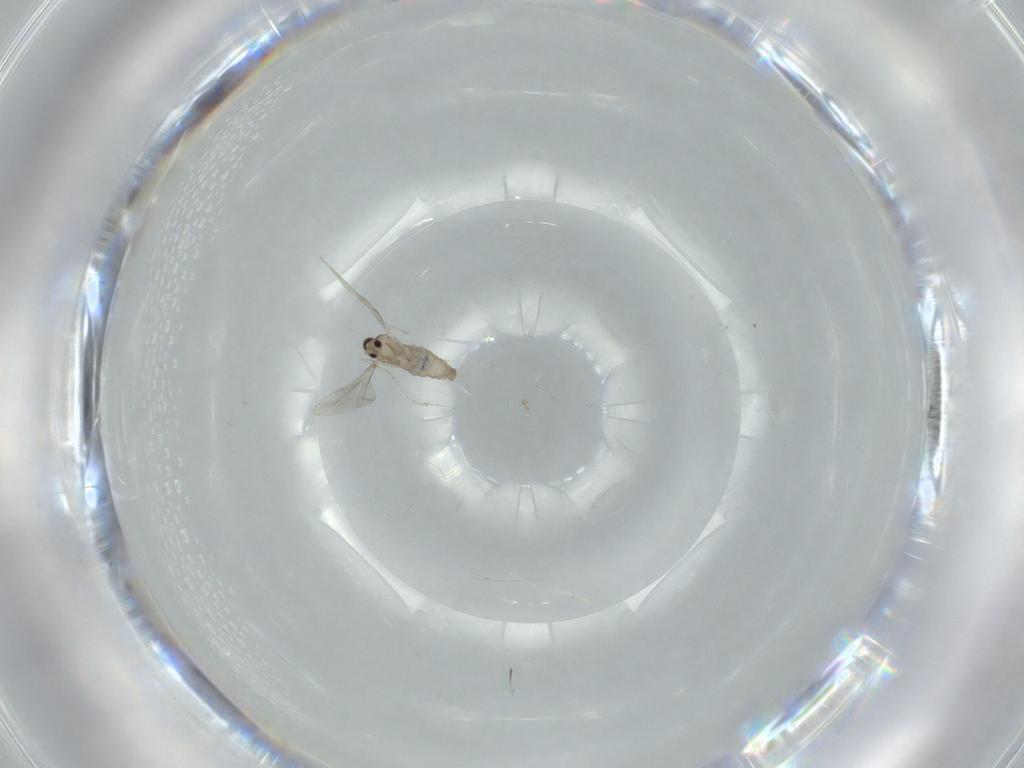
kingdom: Animalia
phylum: Arthropoda
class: Insecta
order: Diptera
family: Cecidomyiidae
